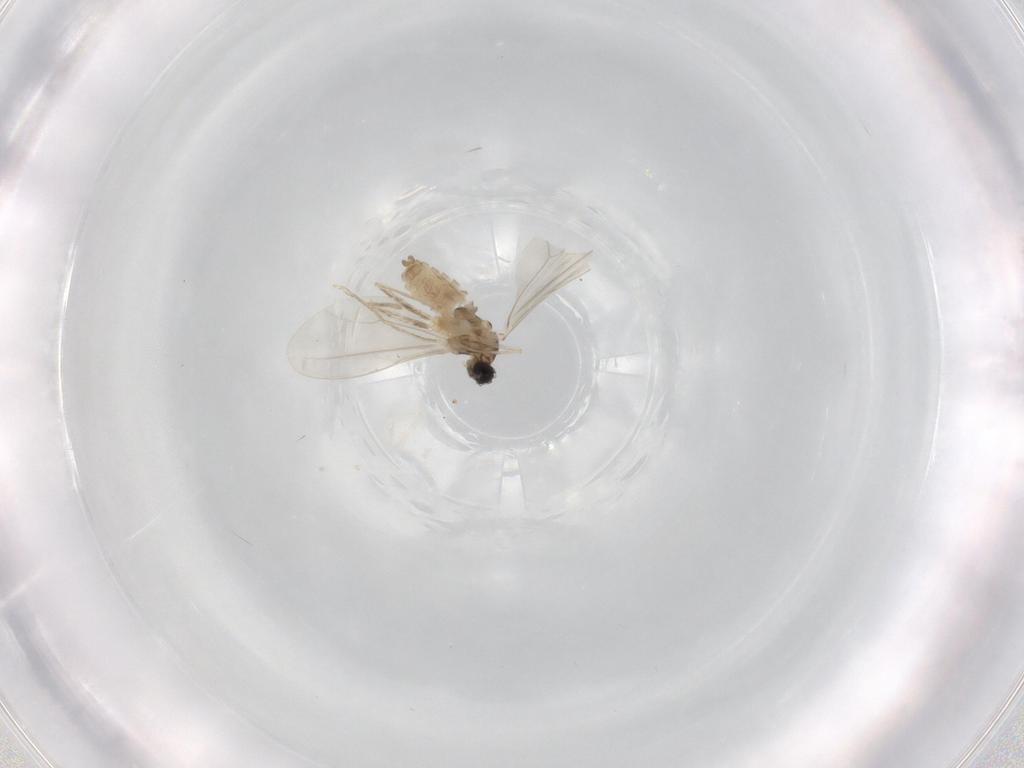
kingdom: Animalia
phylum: Arthropoda
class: Insecta
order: Diptera
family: Cecidomyiidae
